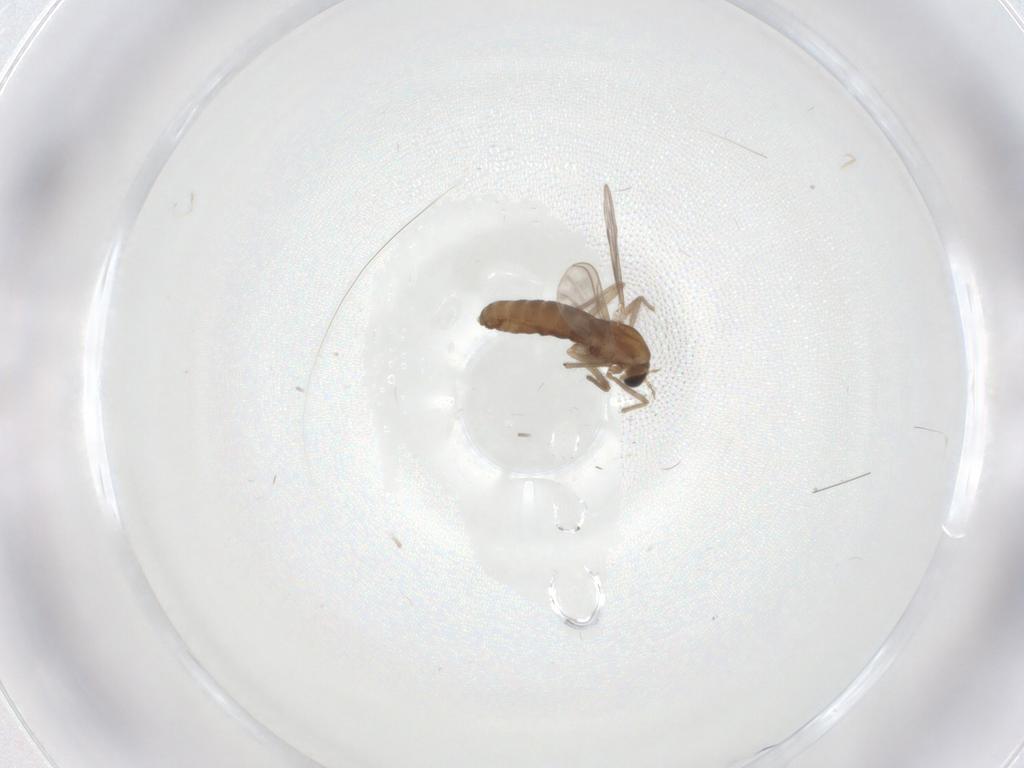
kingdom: Animalia
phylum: Arthropoda
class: Insecta
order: Diptera
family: Chironomidae
